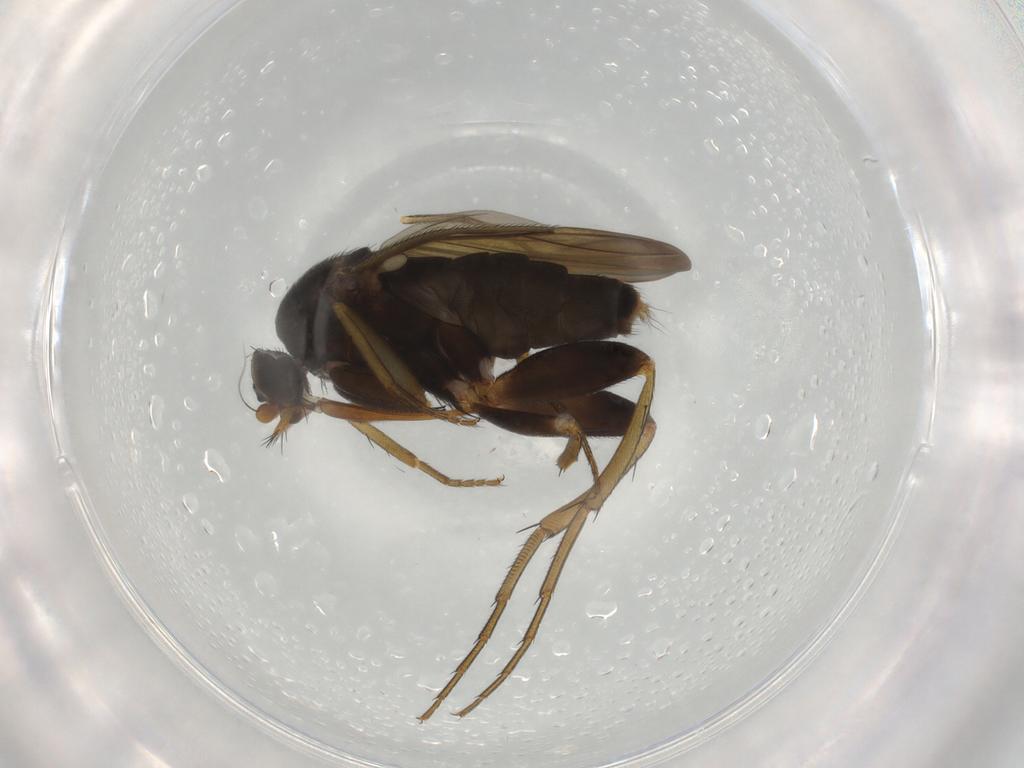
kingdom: Animalia
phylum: Arthropoda
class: Insecta
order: Diptera
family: Phoridae
